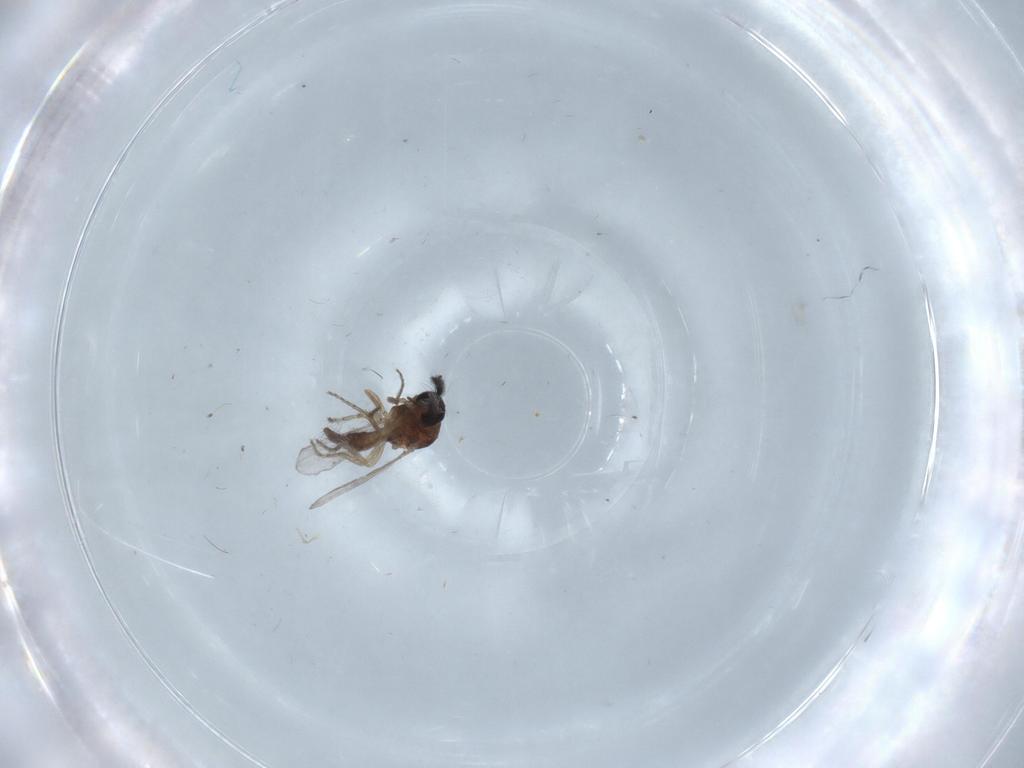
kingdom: Animalia
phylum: Arthropoda
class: Insecta
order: Diptera
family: Ceratopogonidae
